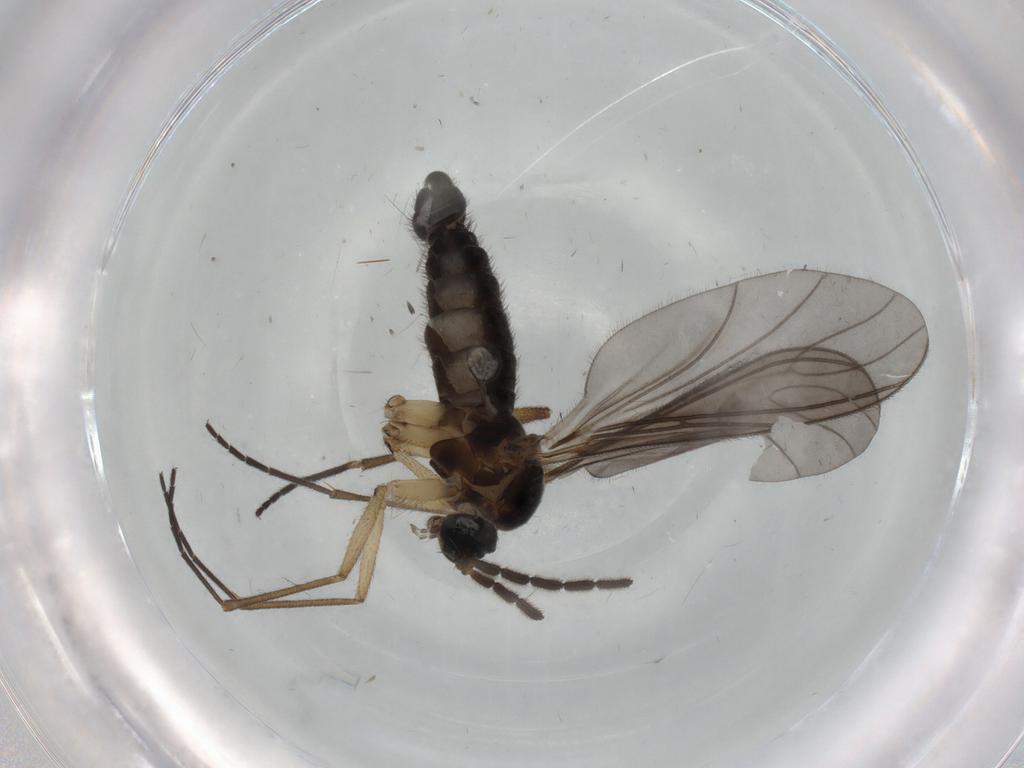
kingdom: Animalia
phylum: Arthropoda
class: Insecta
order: Diptera
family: Sciaridae
